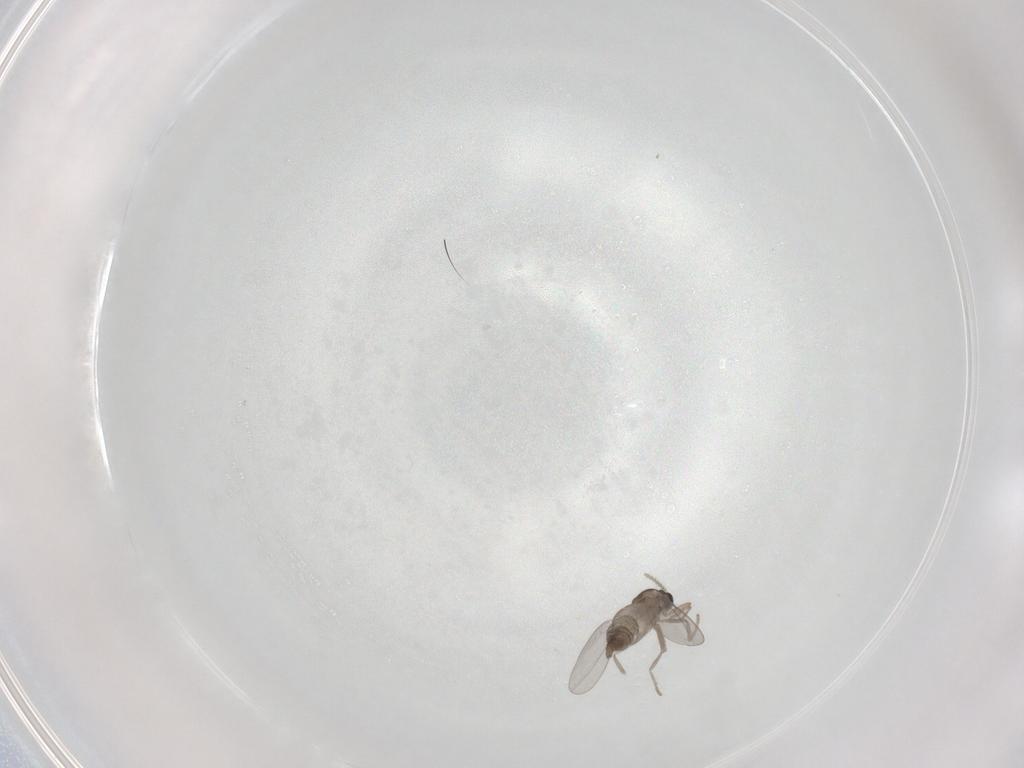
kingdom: Animalia
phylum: Arthropoda
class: Insecta
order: Diptera
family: Cecidomyiidae
